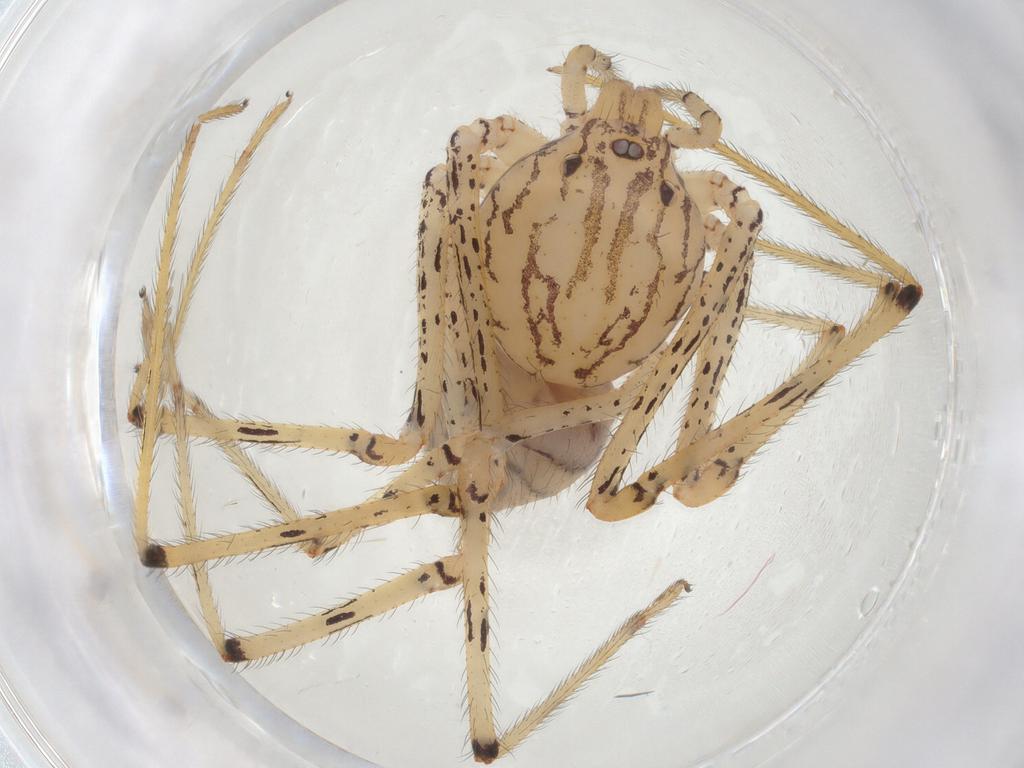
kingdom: Animalia
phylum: Arthropoda
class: Arachnida
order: Araneae
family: Scytodidae
